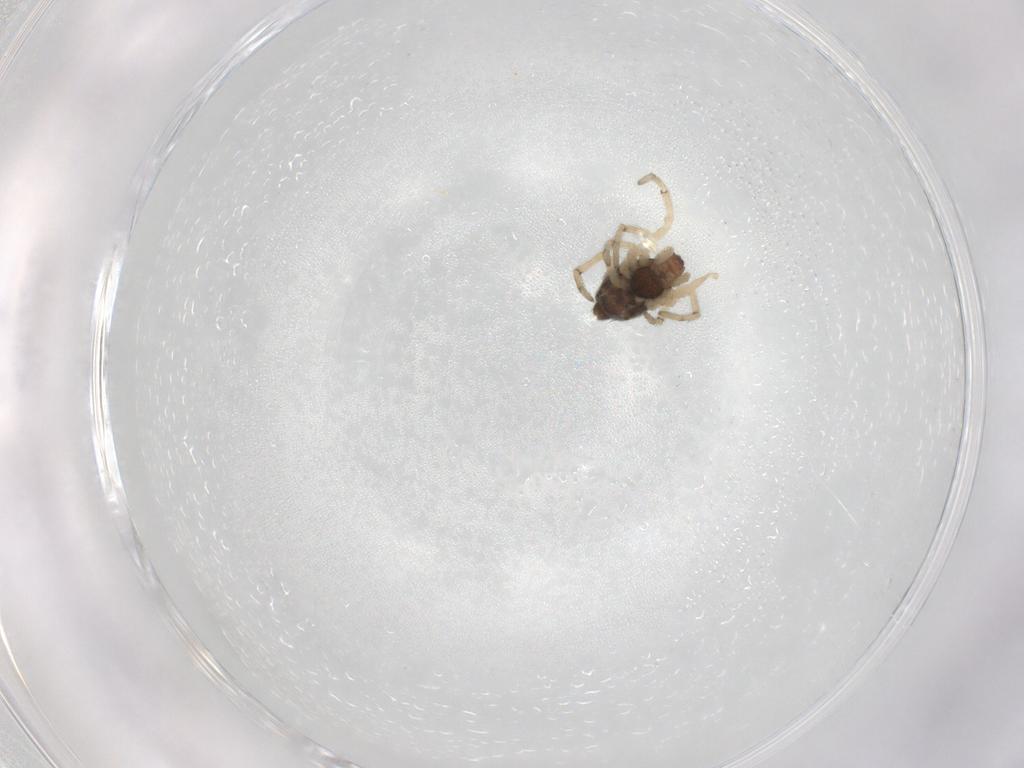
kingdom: Animalia
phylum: Arthropoda
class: Arachnida
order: Araneae
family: Dictynidae
